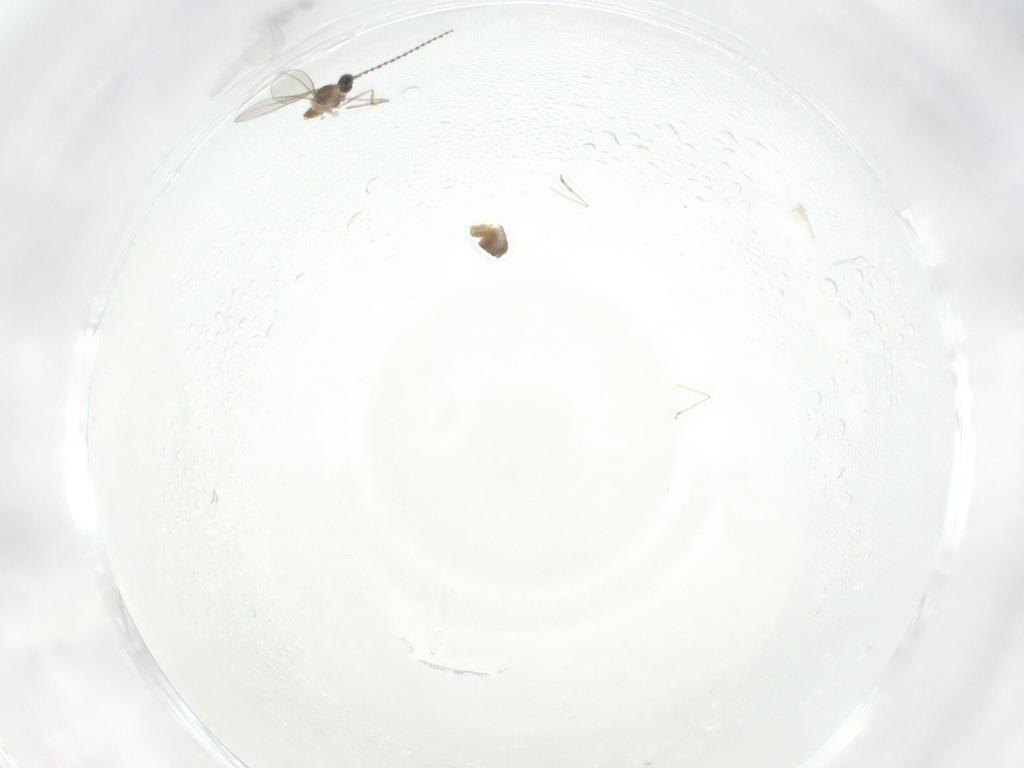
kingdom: Animalia
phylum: Arthropoda
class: Insecta
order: Diptera
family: Cecidomyiidae
